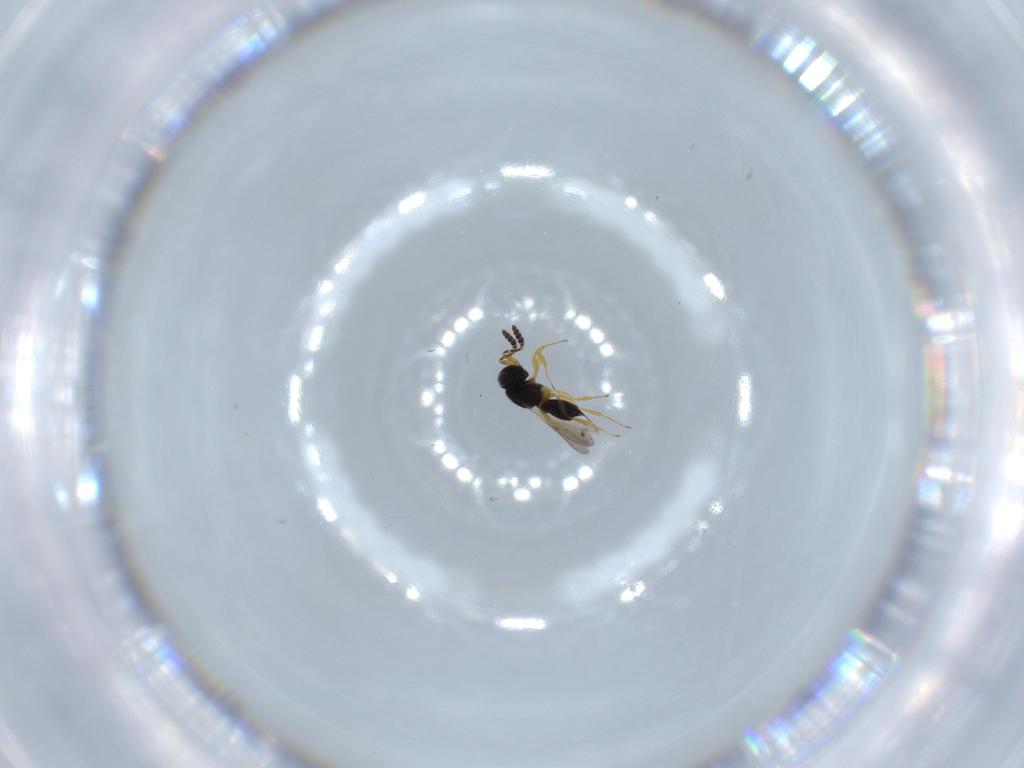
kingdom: Animalia
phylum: Arthropoda
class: Insecta
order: Hymenoptera
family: Scelionidae
